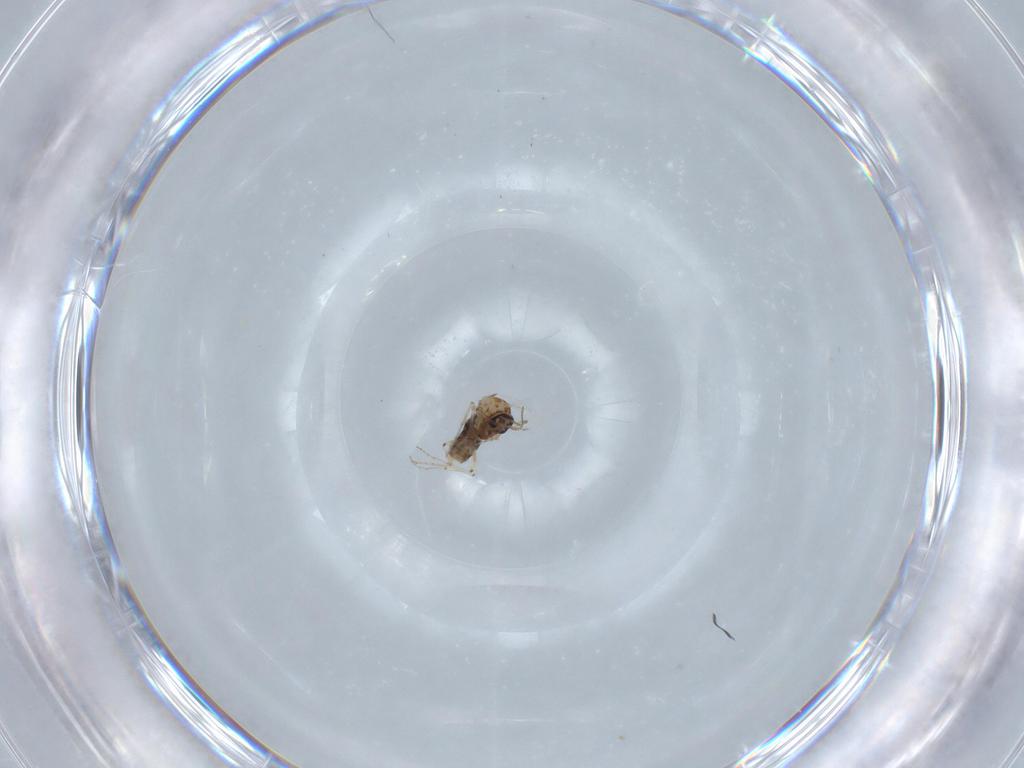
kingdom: Animalia
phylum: Arthropoda
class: Insecta
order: Diptera
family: Ceratopogonidae
